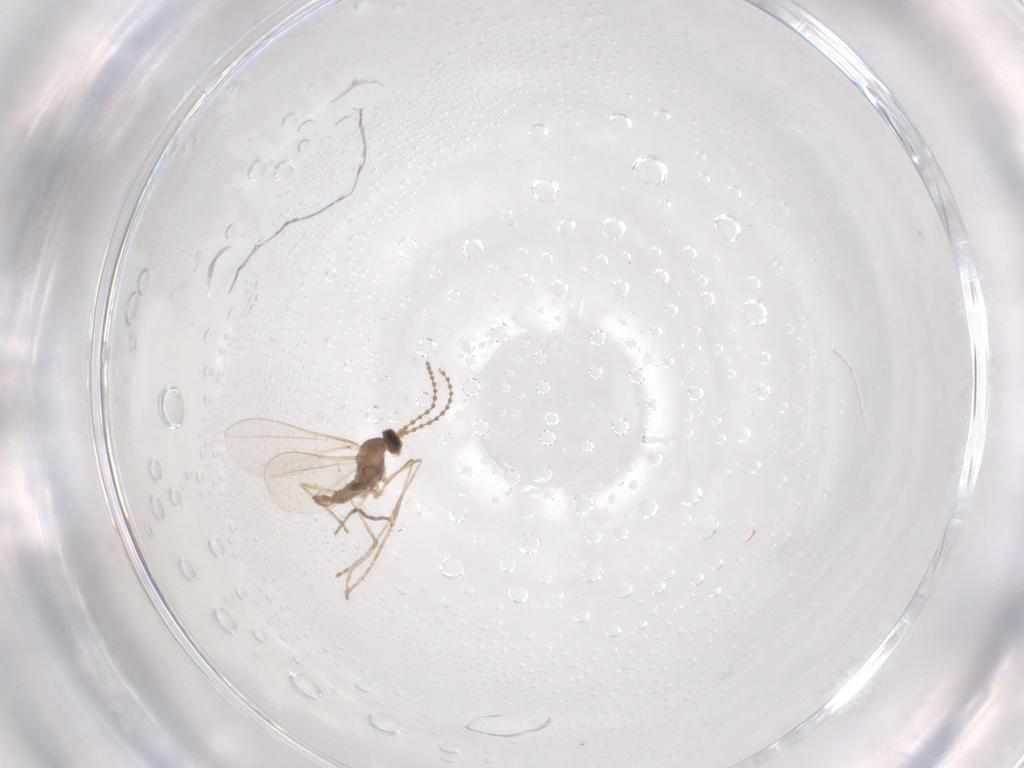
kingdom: Animalia
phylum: Arthropoda
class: Insecta
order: Diptera
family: Cecidomyiidae
